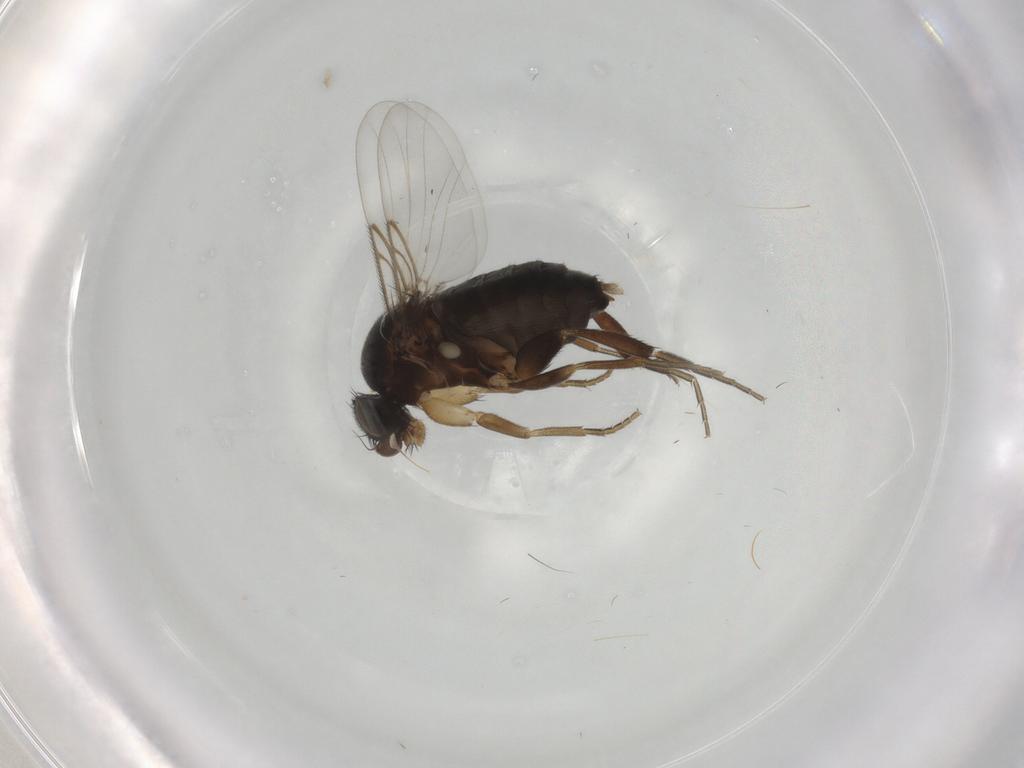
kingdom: Animalia
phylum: Arthropoda
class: Insecta
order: Diptera
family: Phoridae
